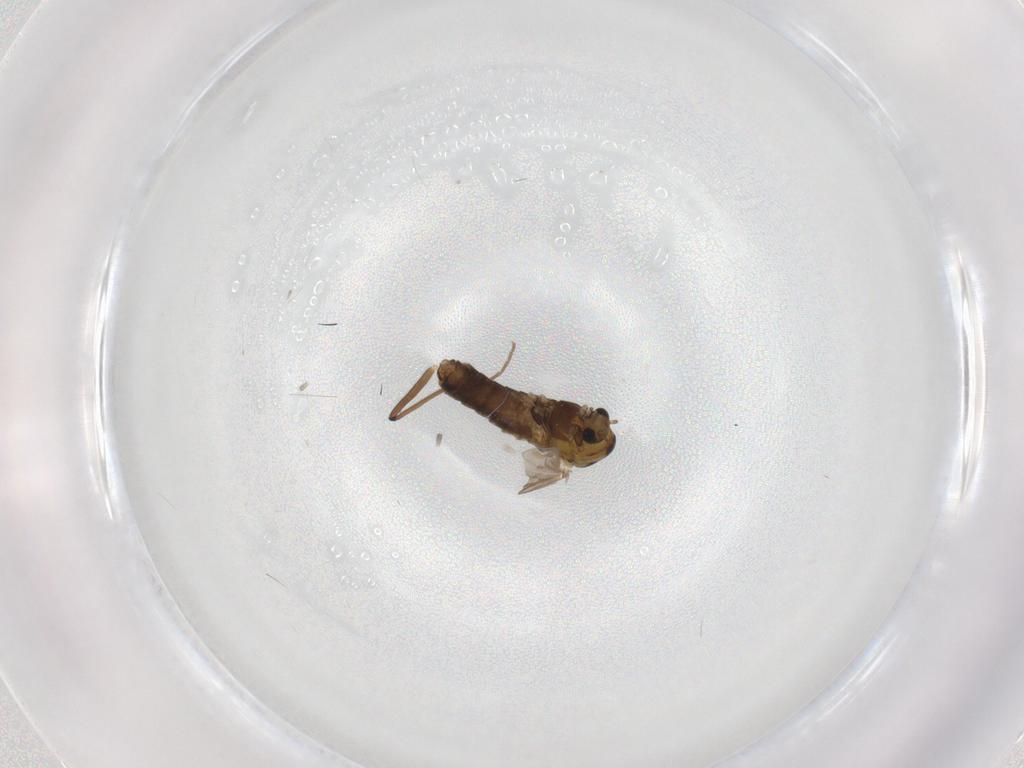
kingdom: Animalia
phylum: Arthropoda
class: Insecta
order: Diptera
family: Chironomidae
